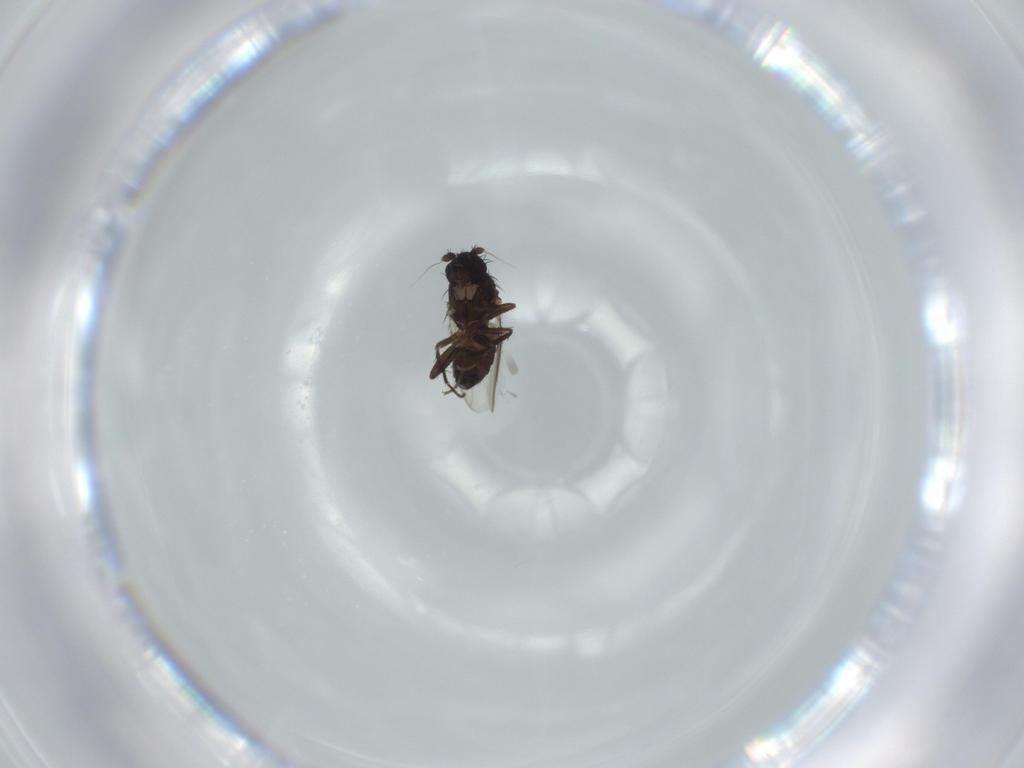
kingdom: Animalia
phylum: Arthropoda
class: Insecta
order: Diptera
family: Sphaeroceridae
